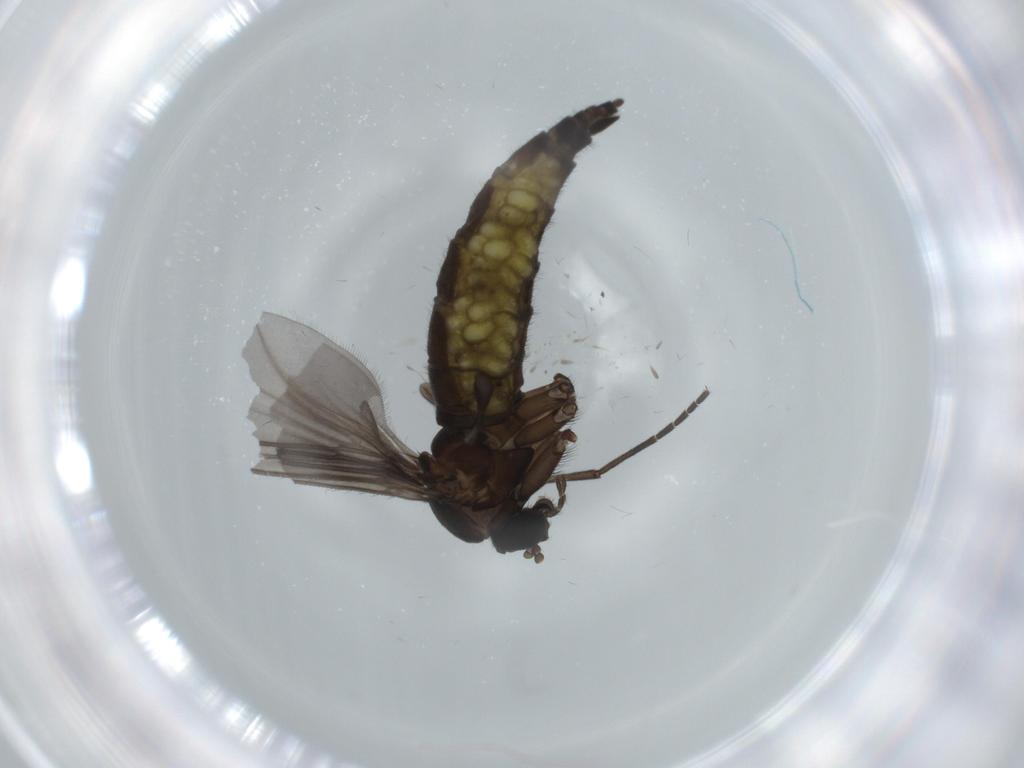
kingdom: Animalia
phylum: Arthropoda
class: Insecta
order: Diptera
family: Sciaridae
